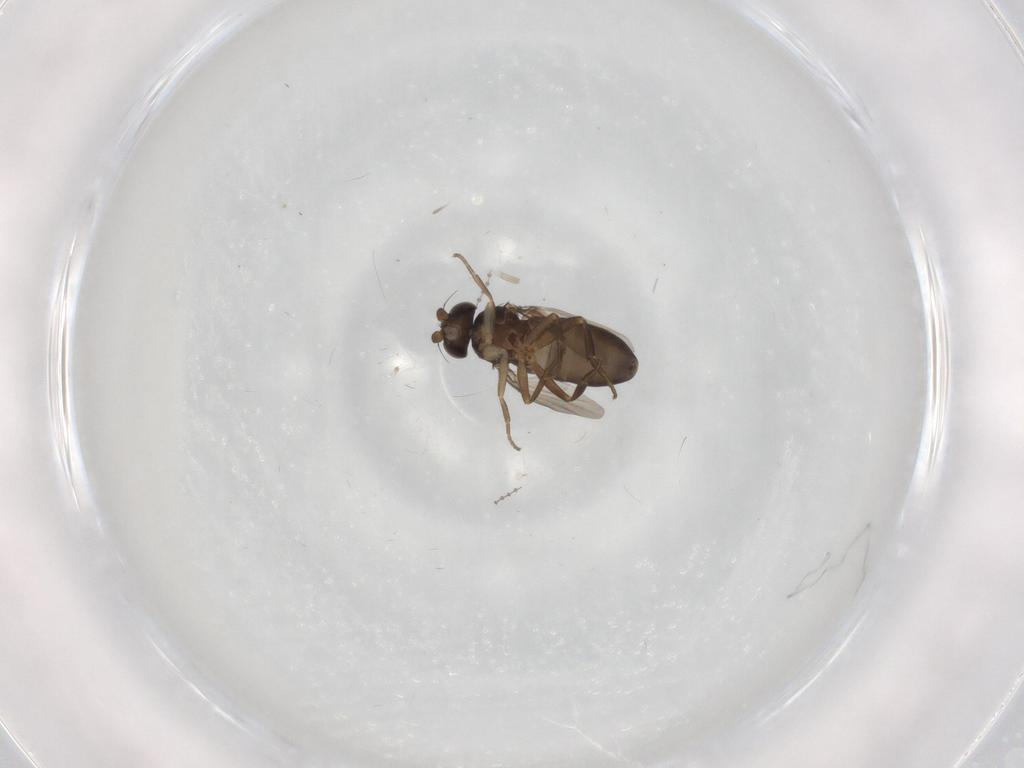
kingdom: Animalia
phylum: Arthropoda
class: Insecta
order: Diptera
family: Phoridae
